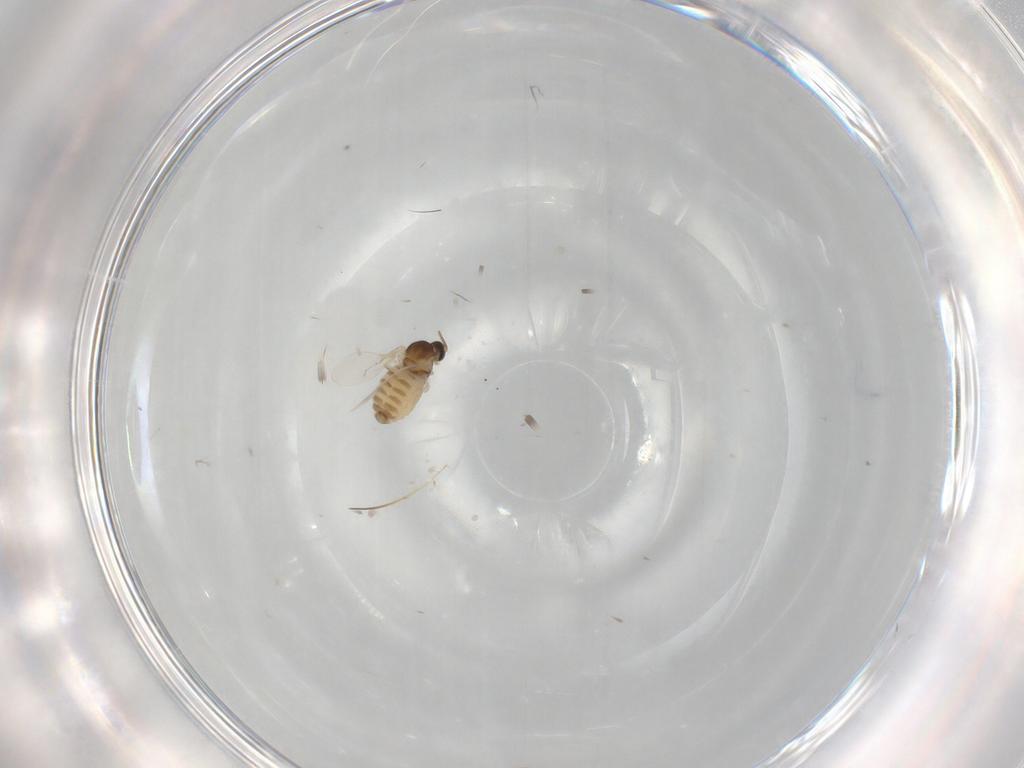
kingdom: Animalia
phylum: Arthropoda
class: Insecta
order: Diptera
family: Cecidomyiidae
